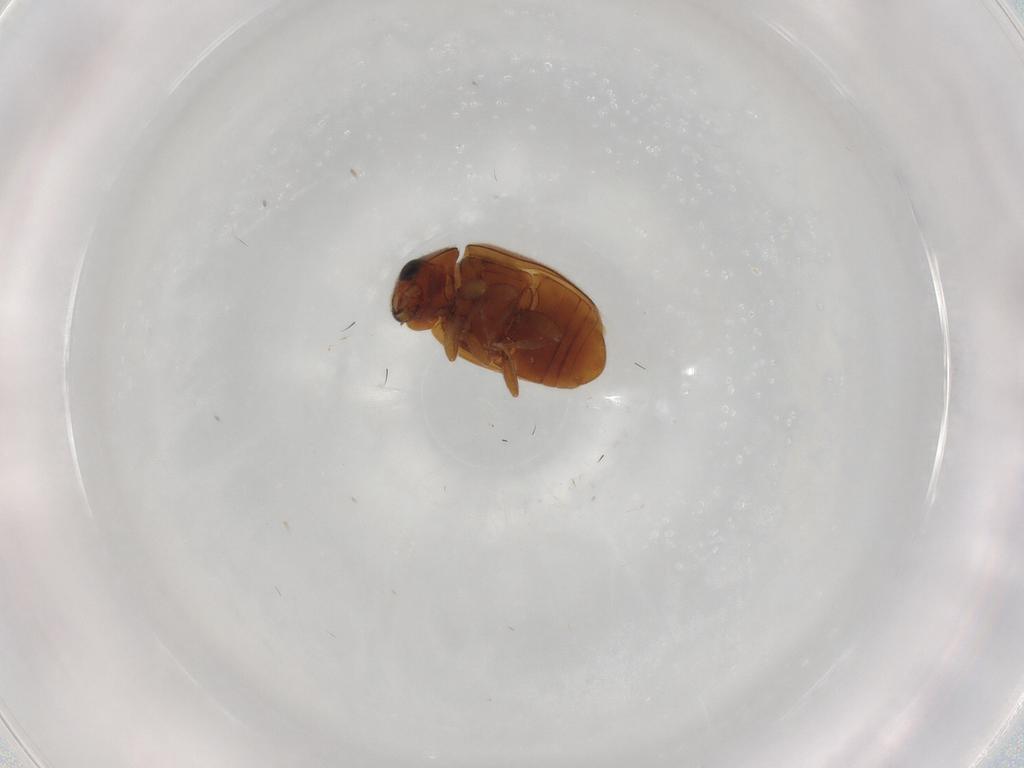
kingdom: Animalia
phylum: Arthropoda
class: Insecta
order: Coleoptera
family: Coccinellidae
